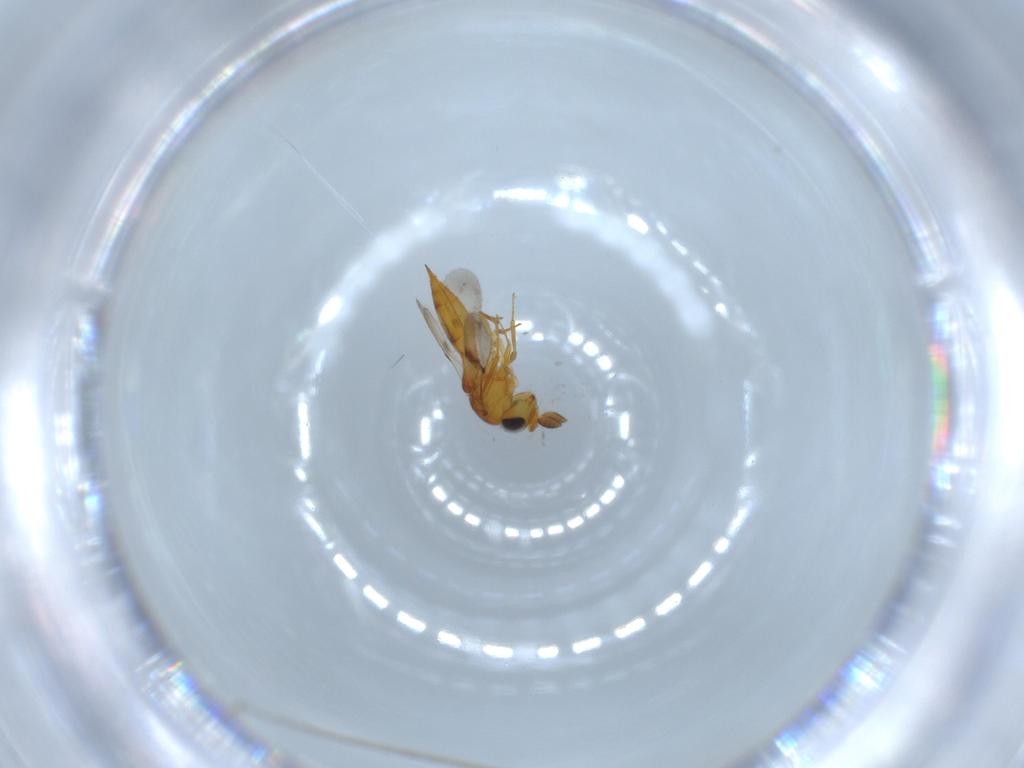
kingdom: Animalia
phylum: Arthropoda
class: Insecta
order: Hymenoptera
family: Scelionidae
